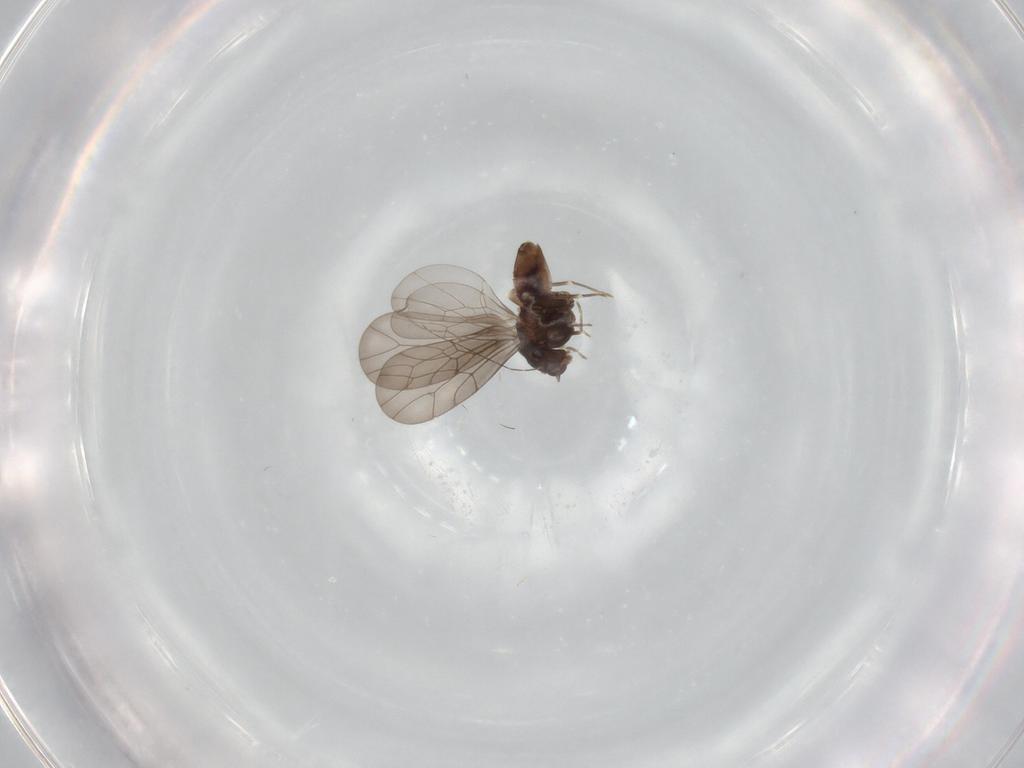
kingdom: Animalia
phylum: Arthropoda
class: Insecta
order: Psocodea
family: Lepidopsocidae
